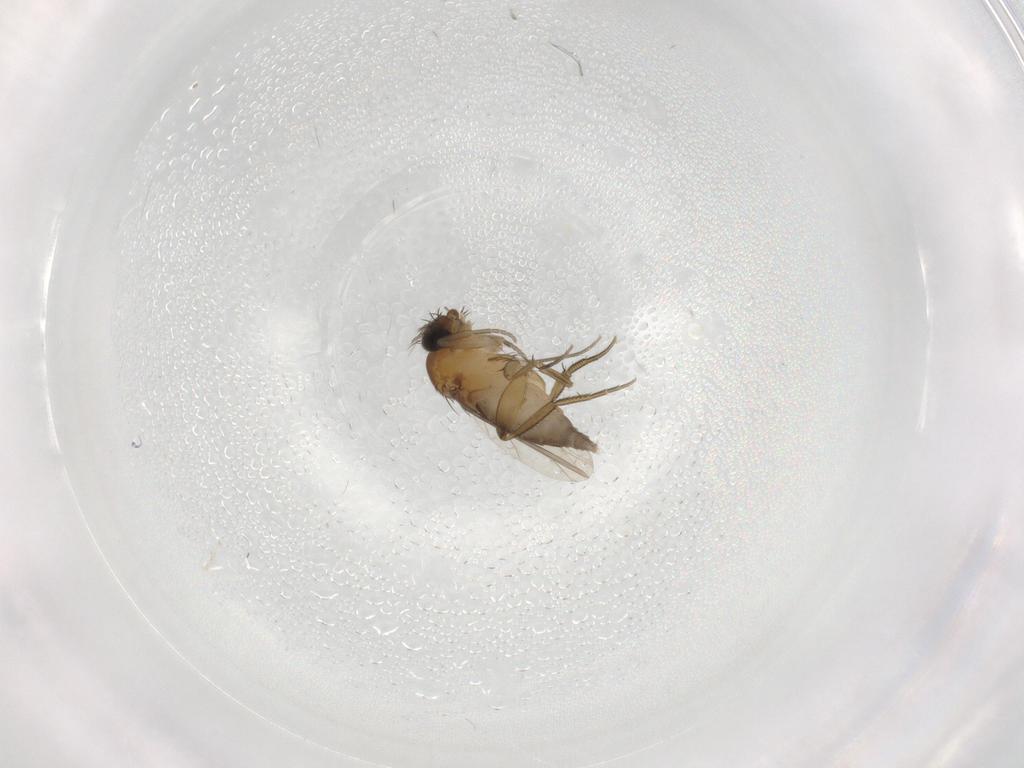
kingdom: Animalia
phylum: Arthropoda
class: Insecta
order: Diptera
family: Phoridae
